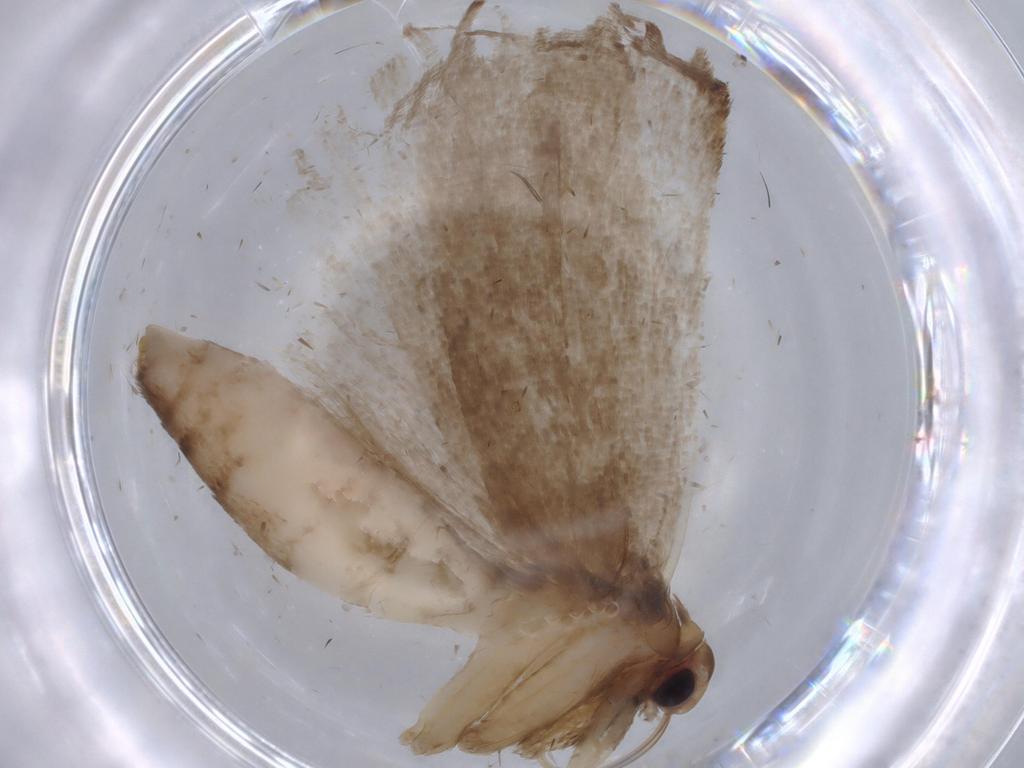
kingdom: Animalia
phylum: Arthropoda
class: Insecta
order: Lepidoptera
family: Erebidae
